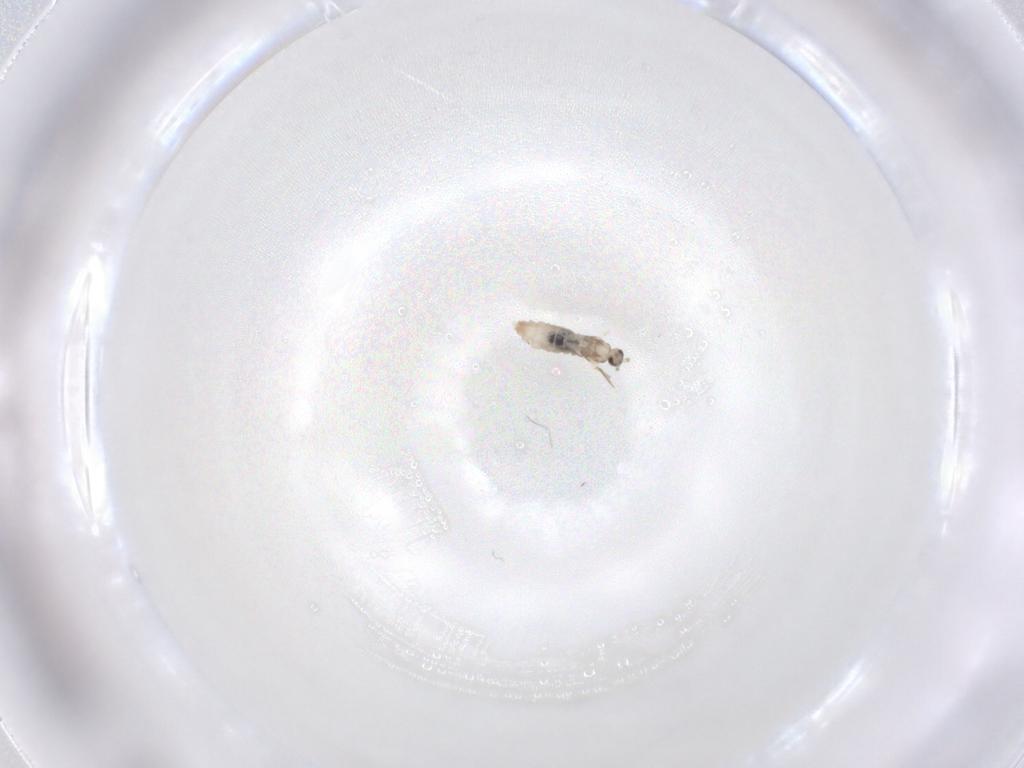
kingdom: Animalia
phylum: Arthropoda
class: Insecta
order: Diptera
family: Cecidomyiidae
